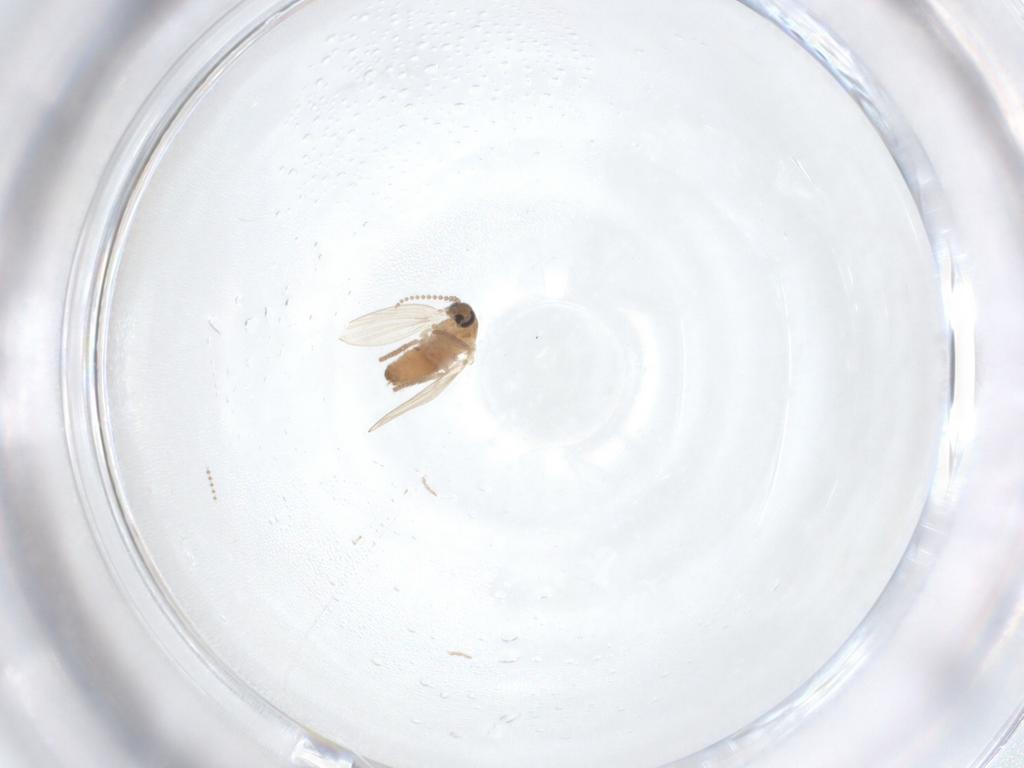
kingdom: Animalia
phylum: Arthropoda
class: Insecta
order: Diptera
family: Psychodidae
